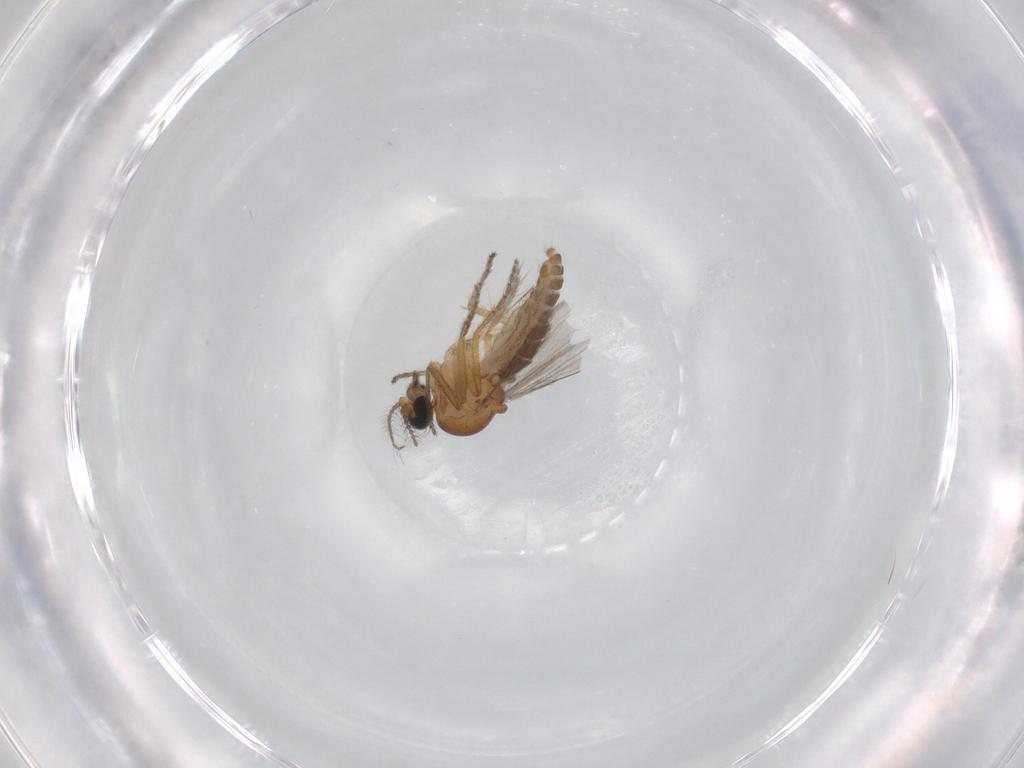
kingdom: Animalia
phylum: Arthropoda
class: Insecta
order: Diptera
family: Ceratopogonidae
